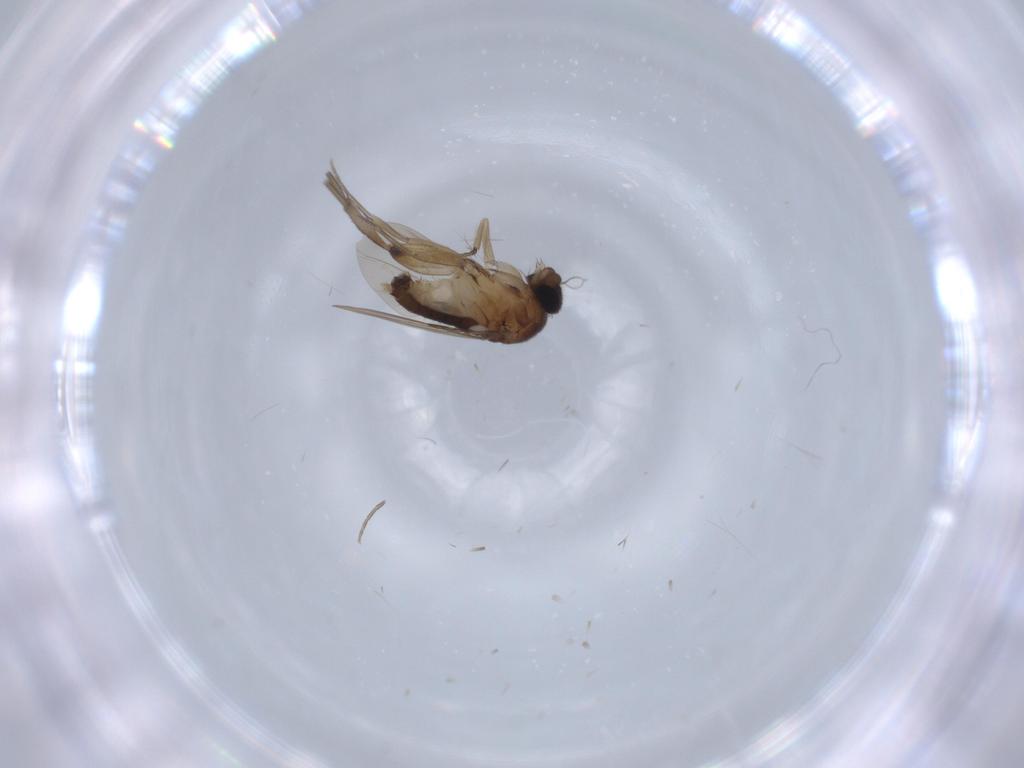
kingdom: Animalia
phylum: Arthropoda
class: Insecta
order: Diptera
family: Phoridae
